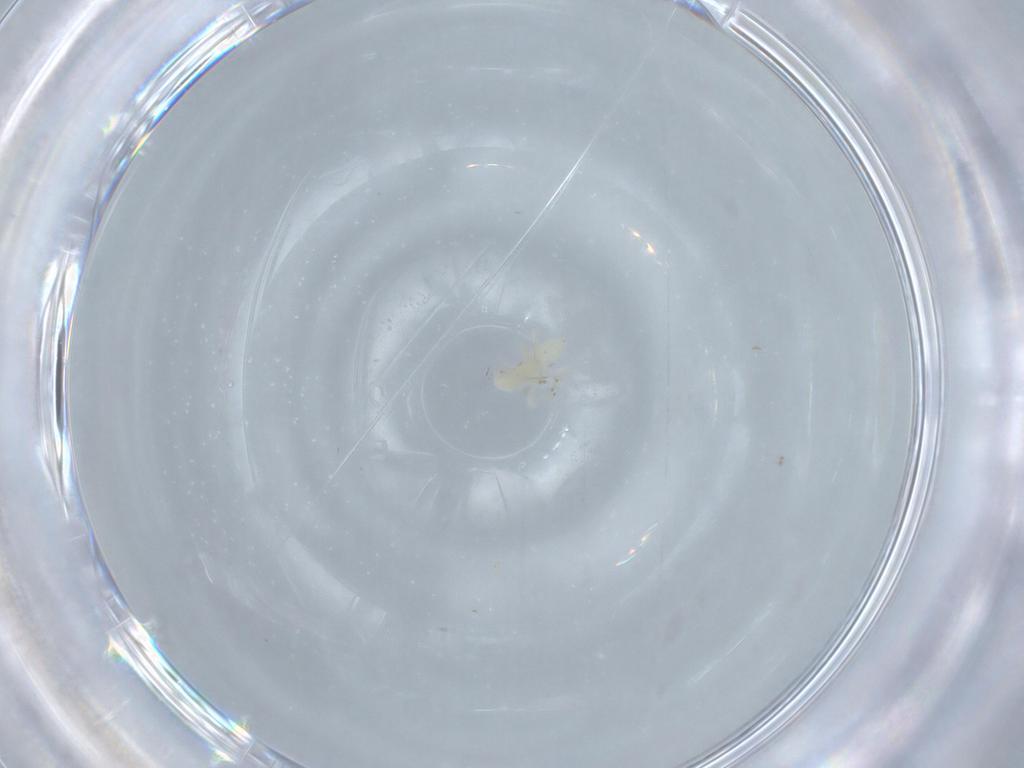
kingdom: Animalia
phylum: Arthropoda
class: Insecta
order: Hemiptera
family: Cicadellidae
